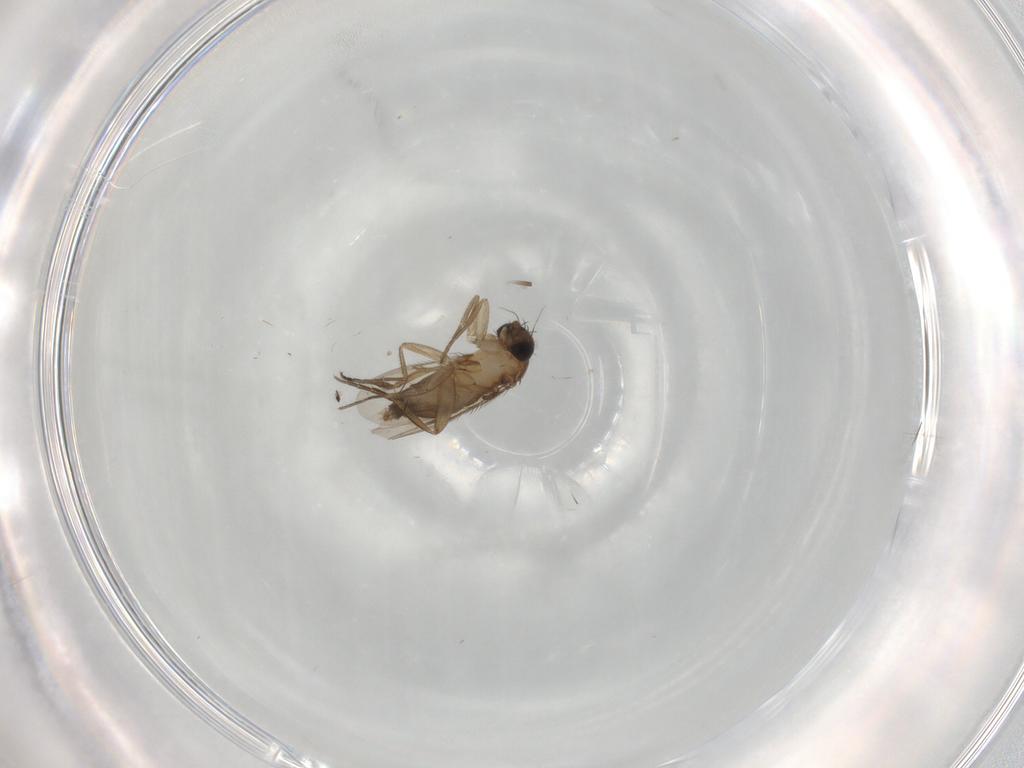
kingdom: Animalia
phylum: Arthropoda
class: Insecta
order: Diptera
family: Phoridae
